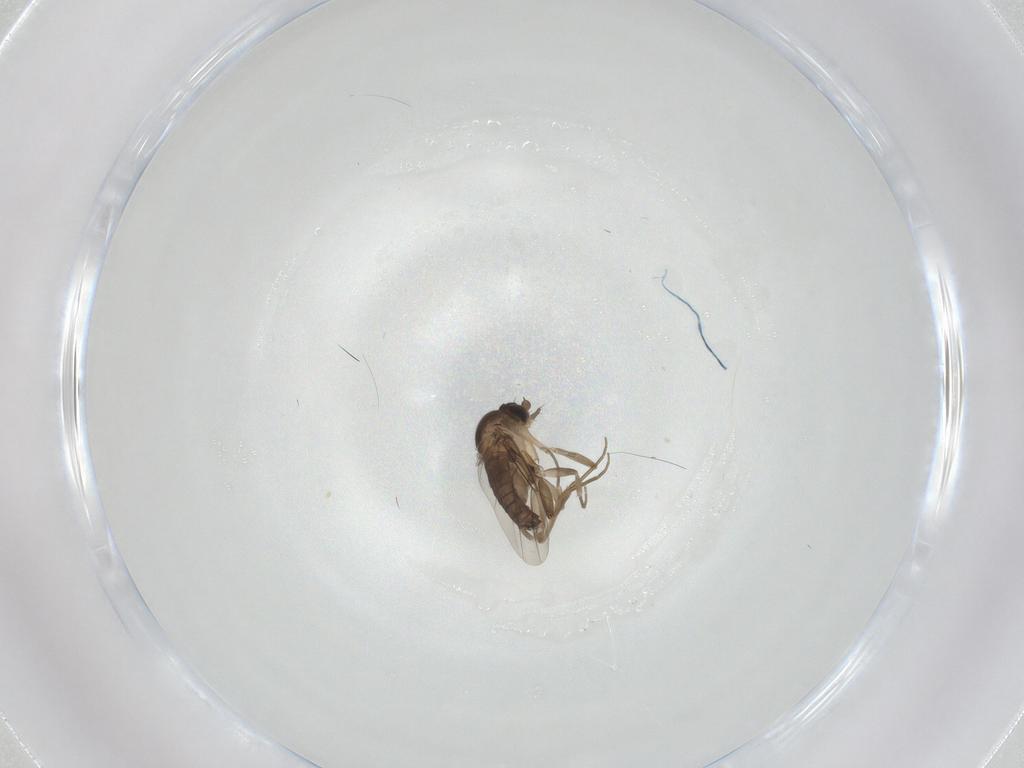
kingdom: Animalia
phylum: Arthropoda
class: Insecta
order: Diptera
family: Phoridae
